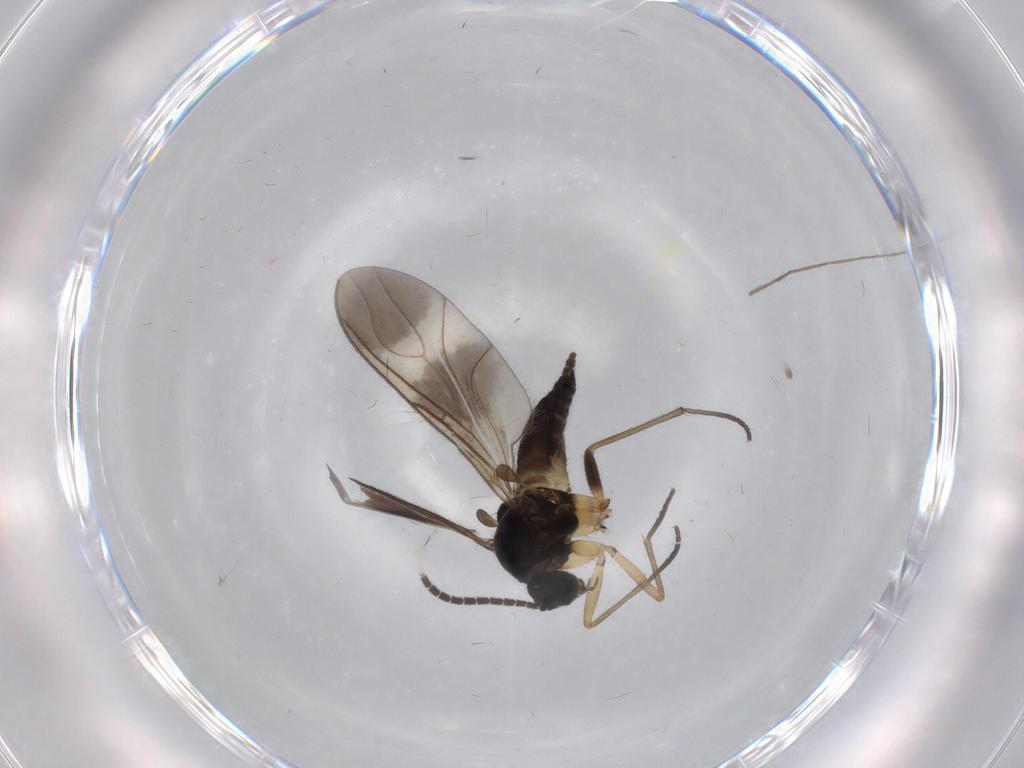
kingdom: Animalia
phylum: Arthropoda
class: Insecta
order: Diptera
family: Sciaridae
